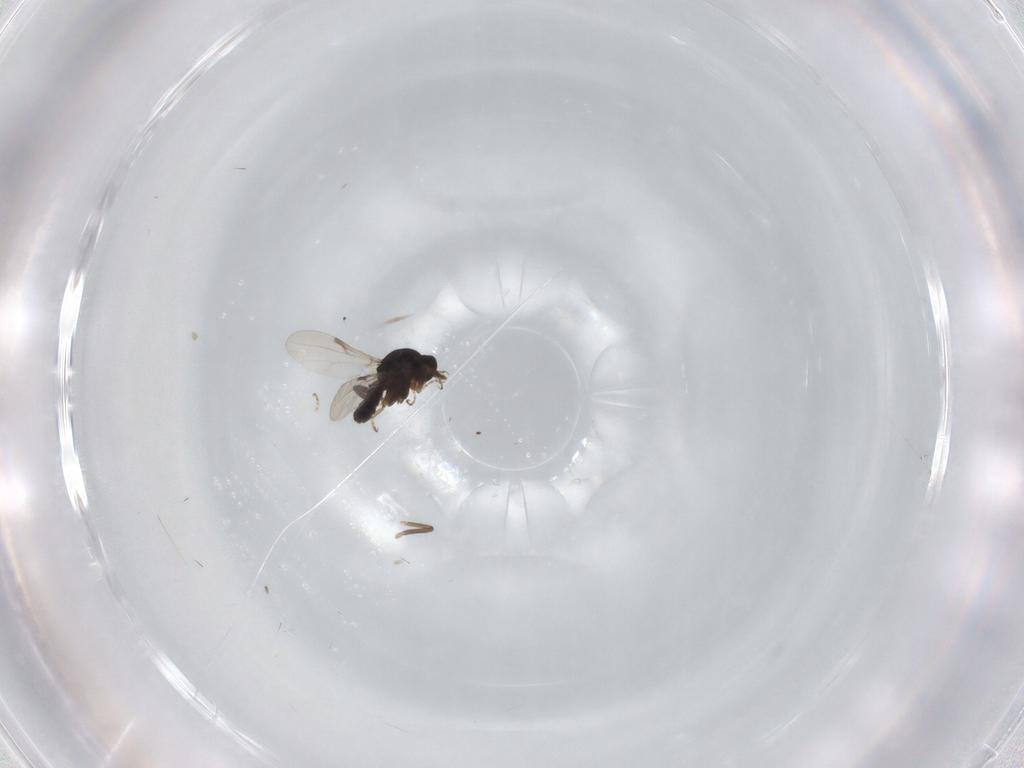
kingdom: Animalia
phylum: Arthropoda
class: Insecta
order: Diptera
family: Ceratopogonidae
